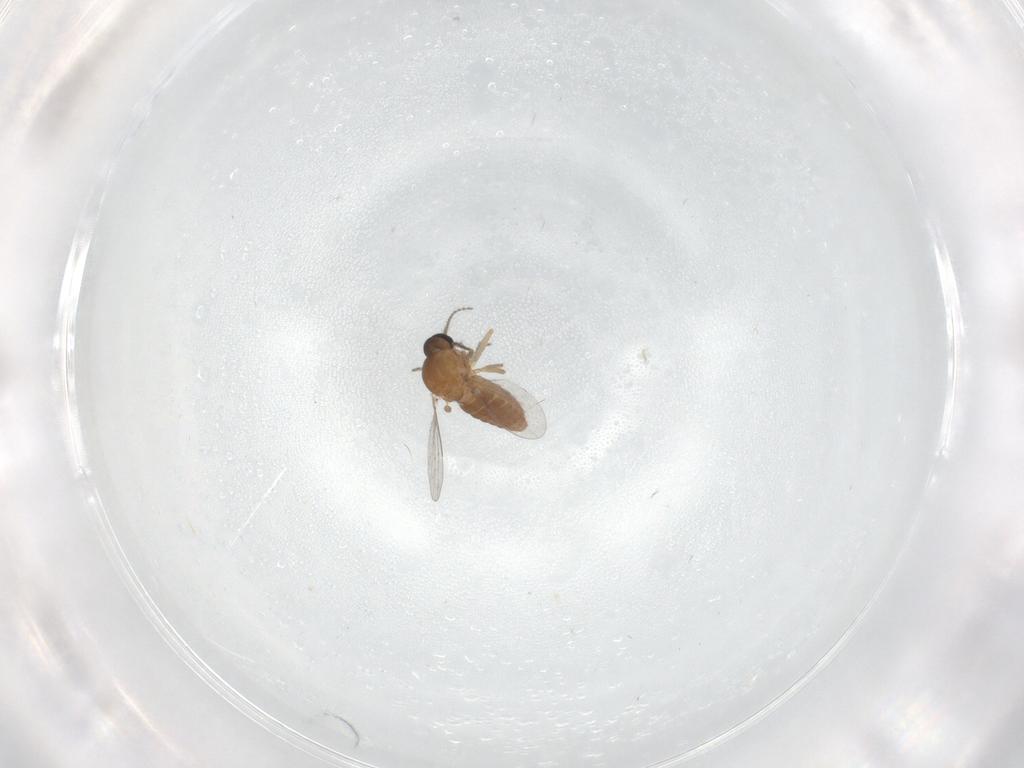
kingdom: Animalia
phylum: Arthropoda
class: Insecta
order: Diptera
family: Ceratopogonidae
